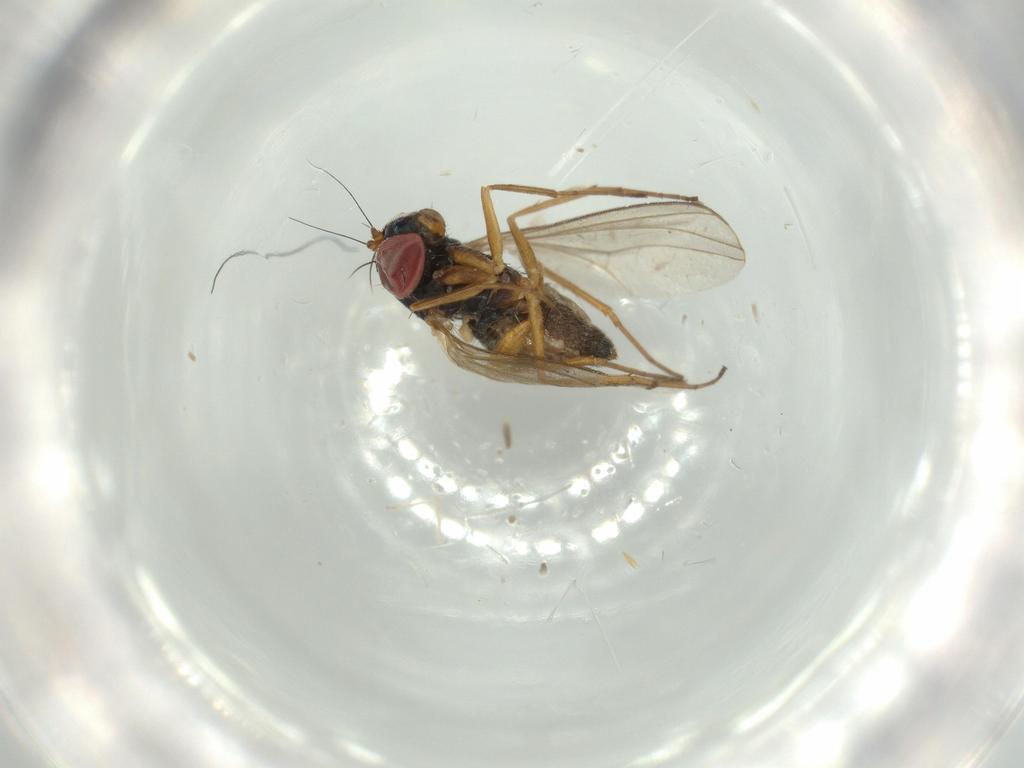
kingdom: Animalia
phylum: Arthropoda
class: Insecta
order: Diptera
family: Dolichopodidae
